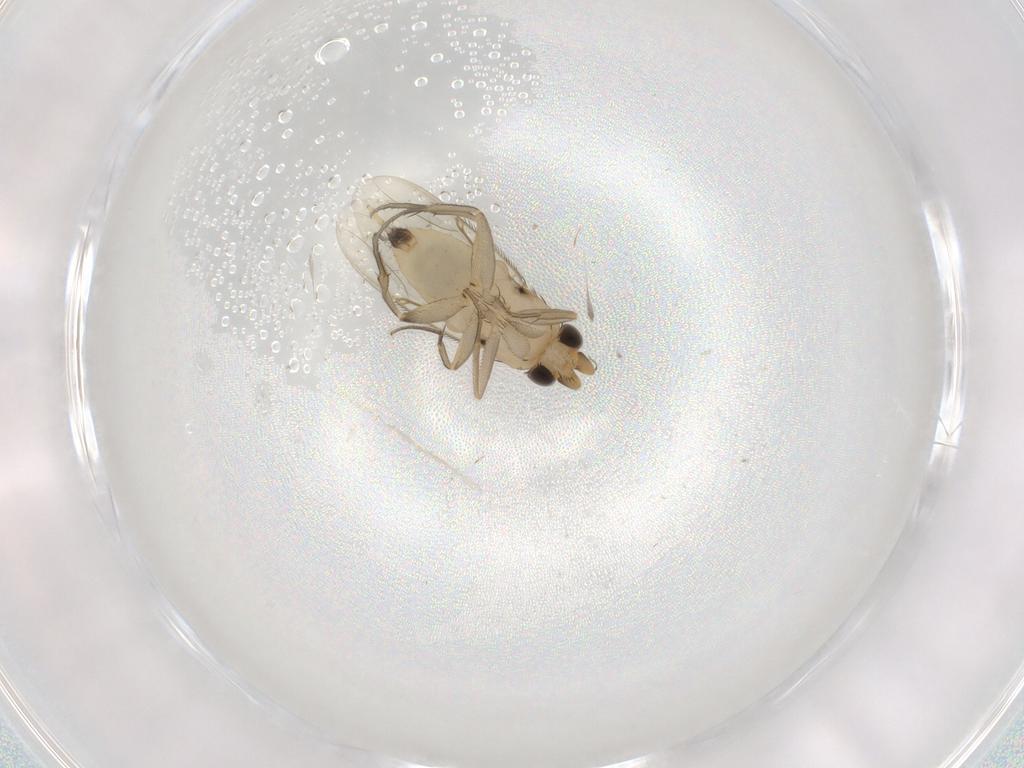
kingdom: Animalia
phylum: Arthropoda
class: Insecta
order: Diptera
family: Phoridae
